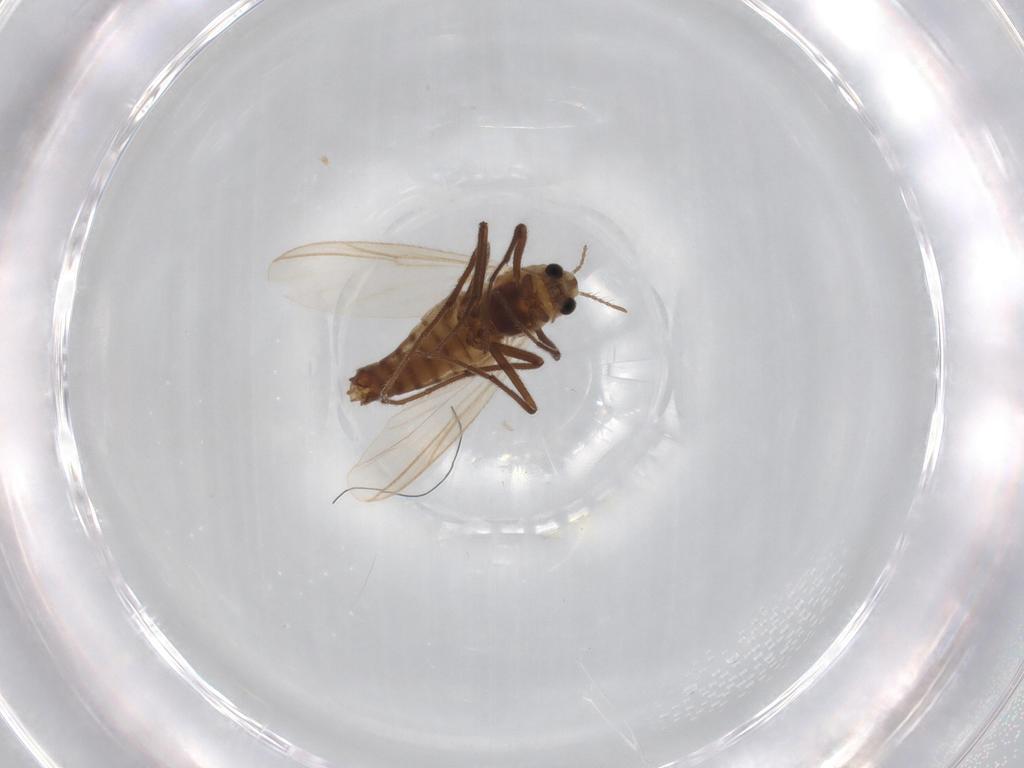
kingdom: Animalia
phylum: Arthropoda
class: Insecta
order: Diptera
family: Chironomidae
